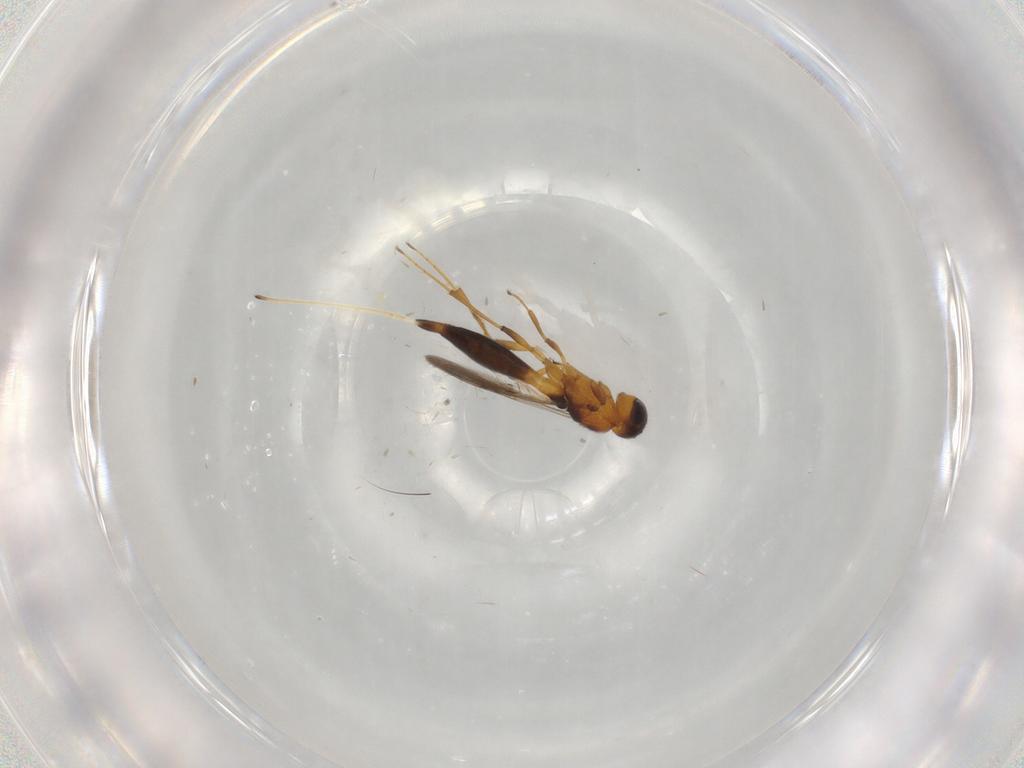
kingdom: Animalia
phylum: Arthropoda
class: Insecta
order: Hymenoptera
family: Scelionidae
